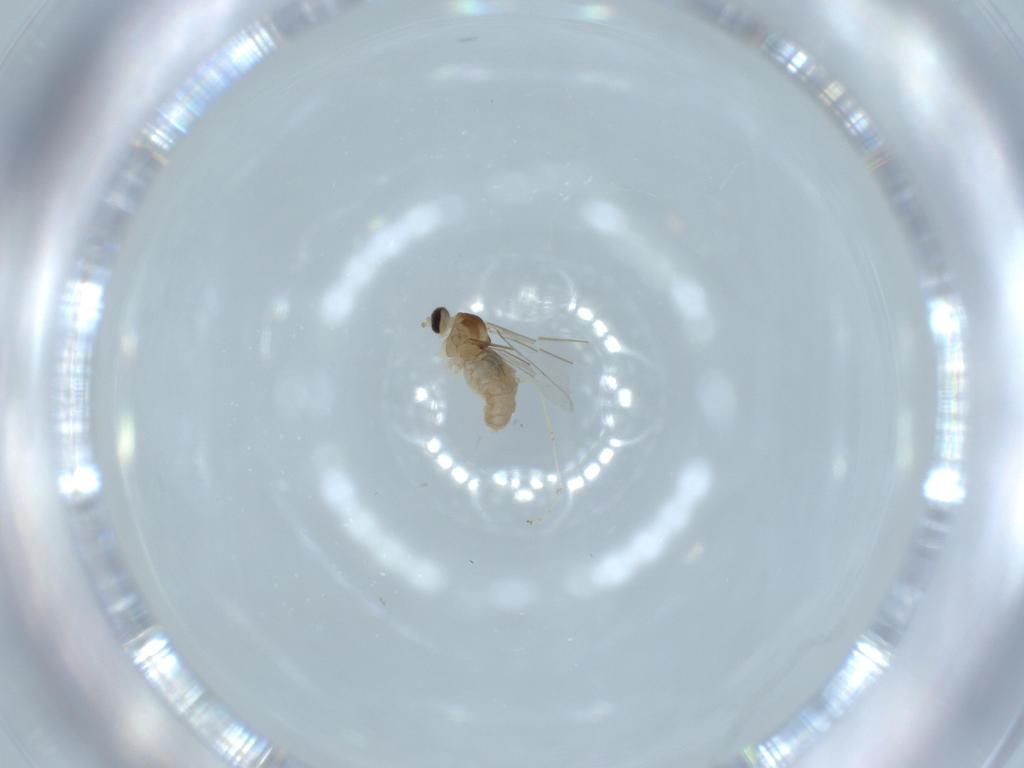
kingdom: Animalia
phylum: Arthropoda
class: Insecta
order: Diptera
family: Cecidomyiidae
